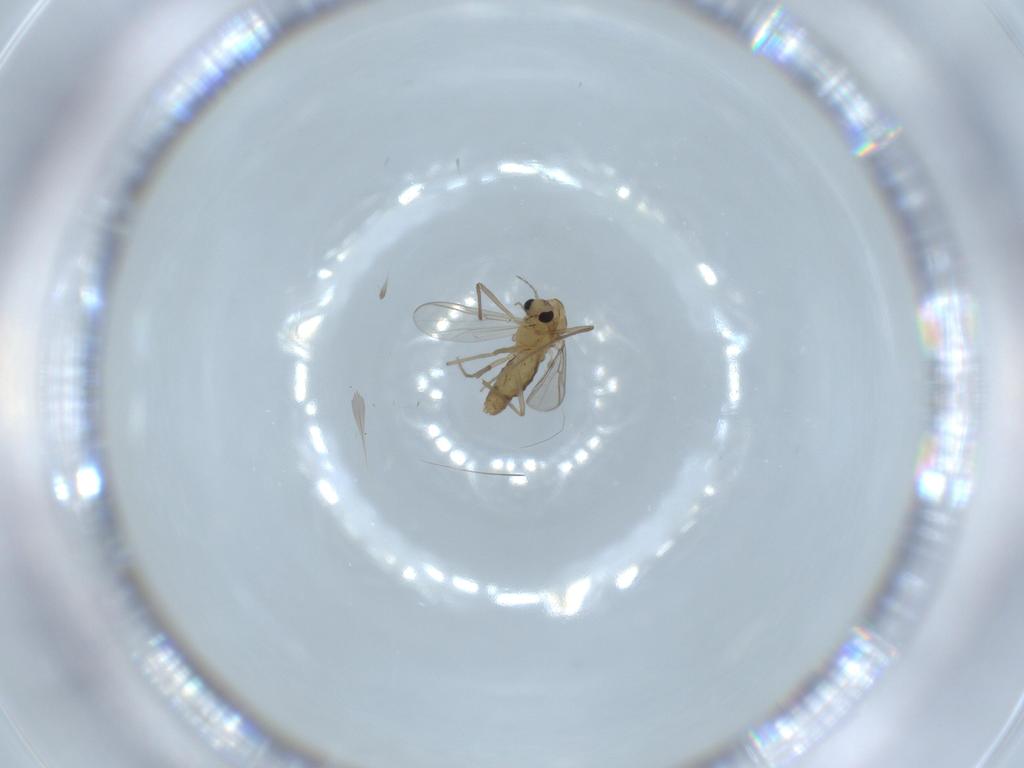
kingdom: Animalia
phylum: Arthropoda
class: Insecta
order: Diptera
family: Chironomidae
